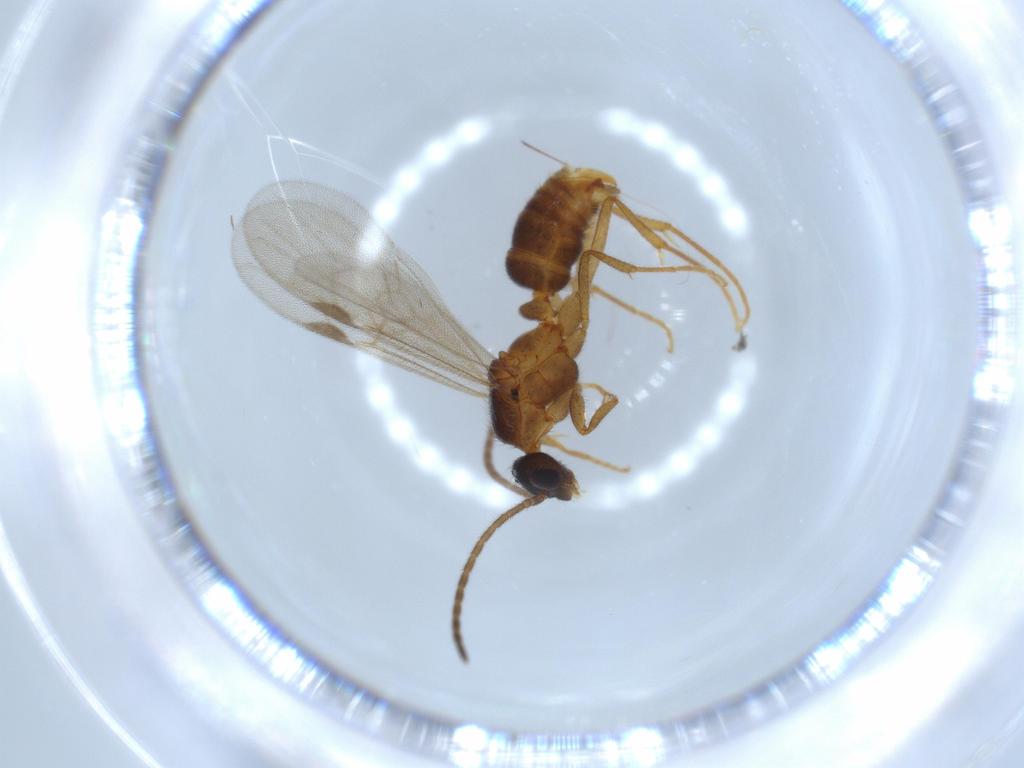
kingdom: Animalia
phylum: Arthropoda
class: Insecta
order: Hymenoptera
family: Formicidae
